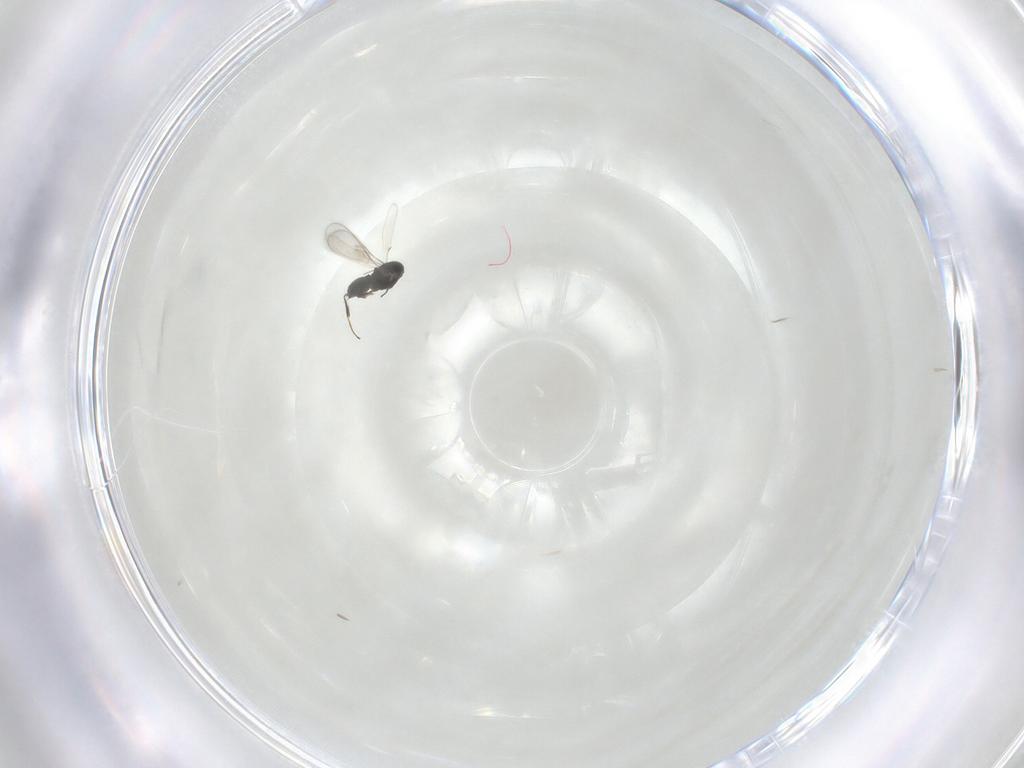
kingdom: Animalia
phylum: Arthropoda
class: Insecta
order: Hymenoptera
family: Scelionidae
